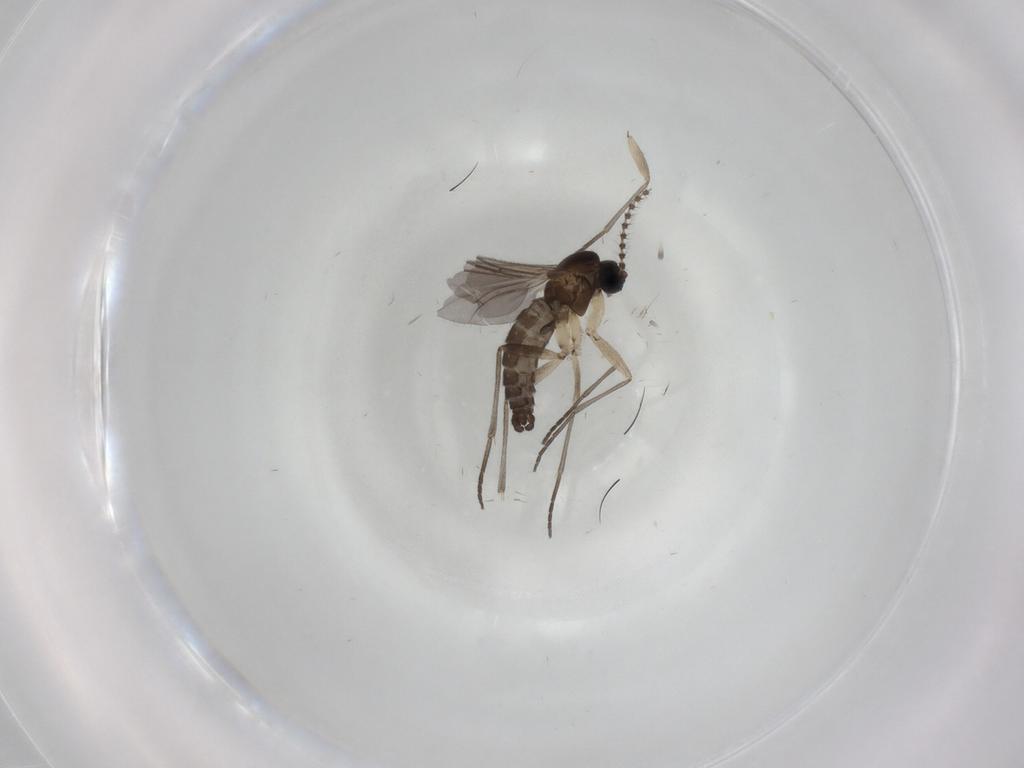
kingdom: Animalia
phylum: Arthropoda
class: Insecta
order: Diptera
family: Sciaridae
